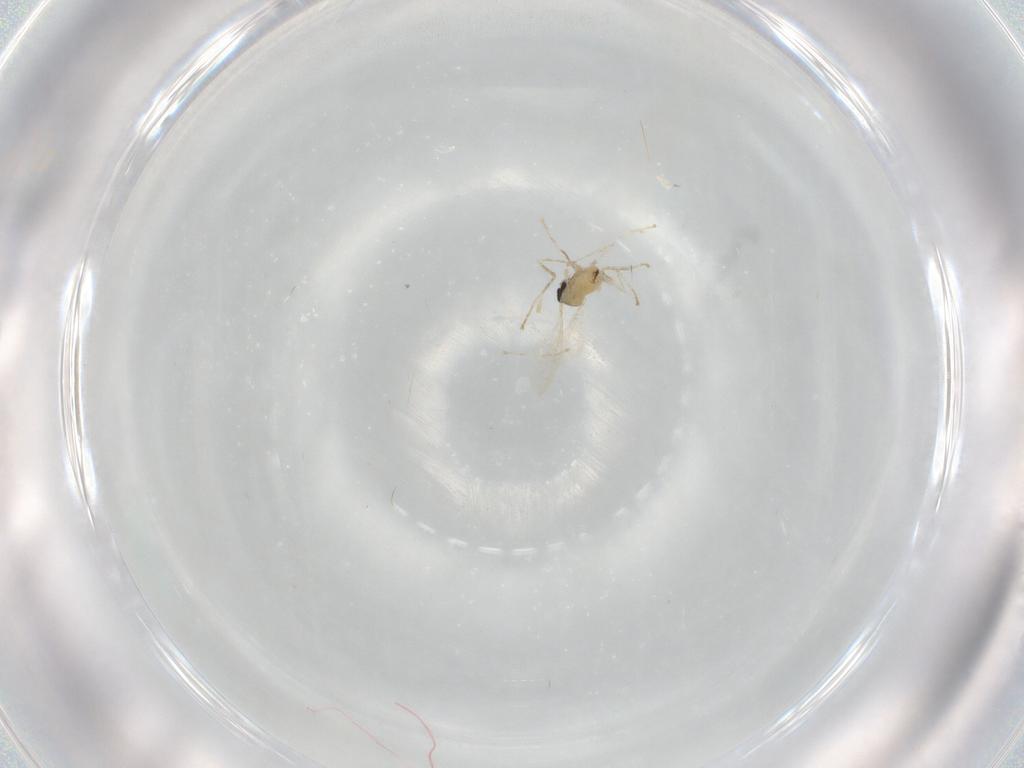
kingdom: Animalia
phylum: Arthropoda
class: Insecta
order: Diptera
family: Cecidomyiidae
